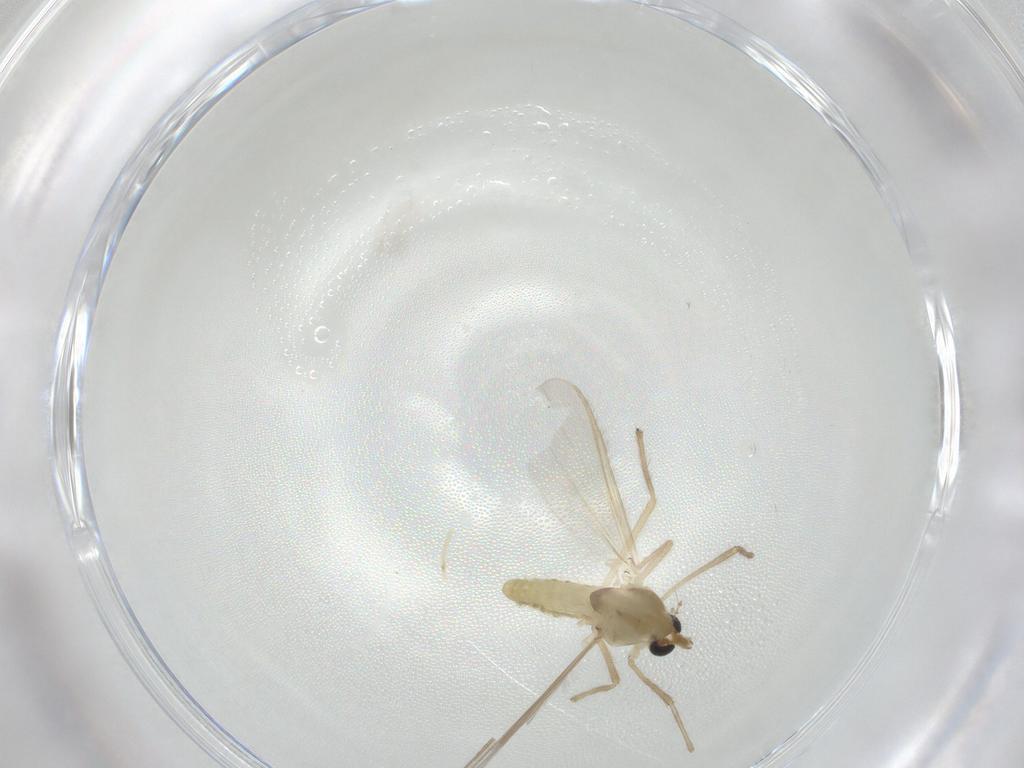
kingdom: Animalia
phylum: Arthropoda
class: Insecta
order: Diptera
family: Chironomidae
